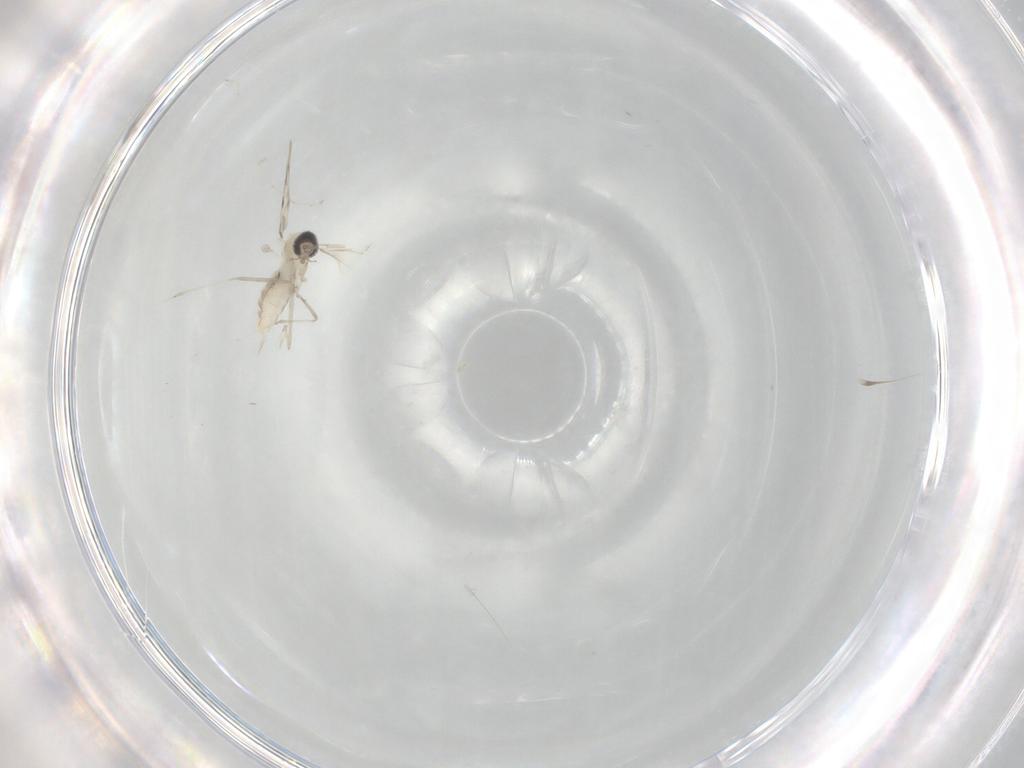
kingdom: Animalia
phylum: Arthropoda
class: Insecta
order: Diptera
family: Cecidomyiidae
